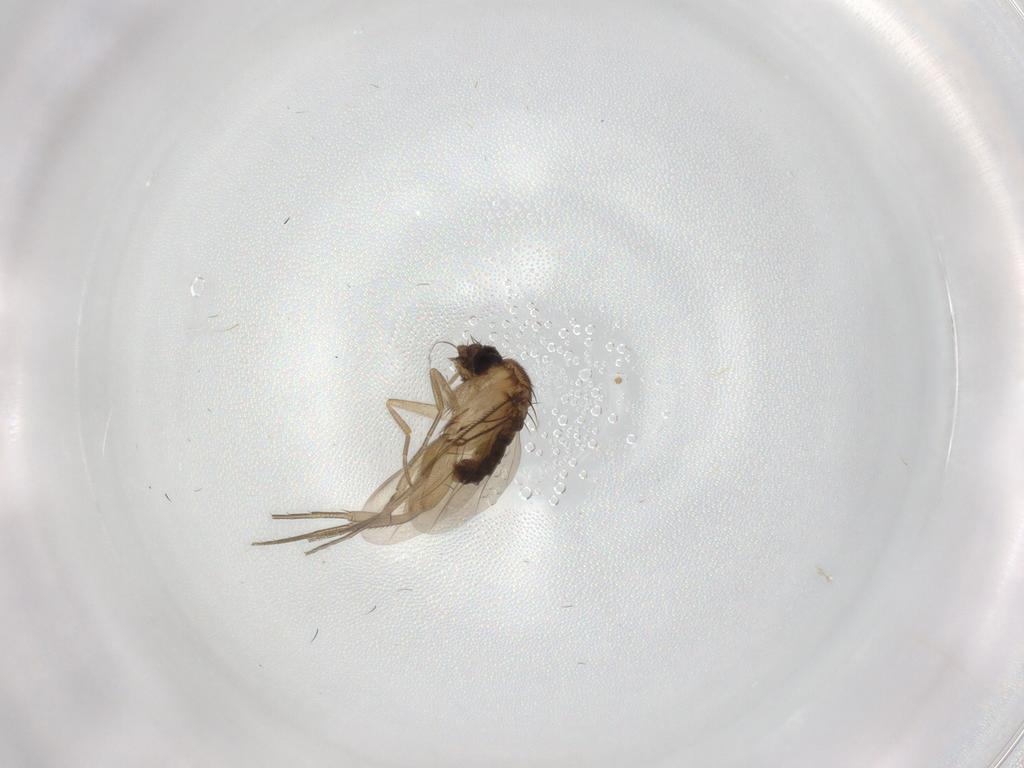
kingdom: Animalia
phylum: Arthropoda
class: Insecta
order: Diptera
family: Phoridae
